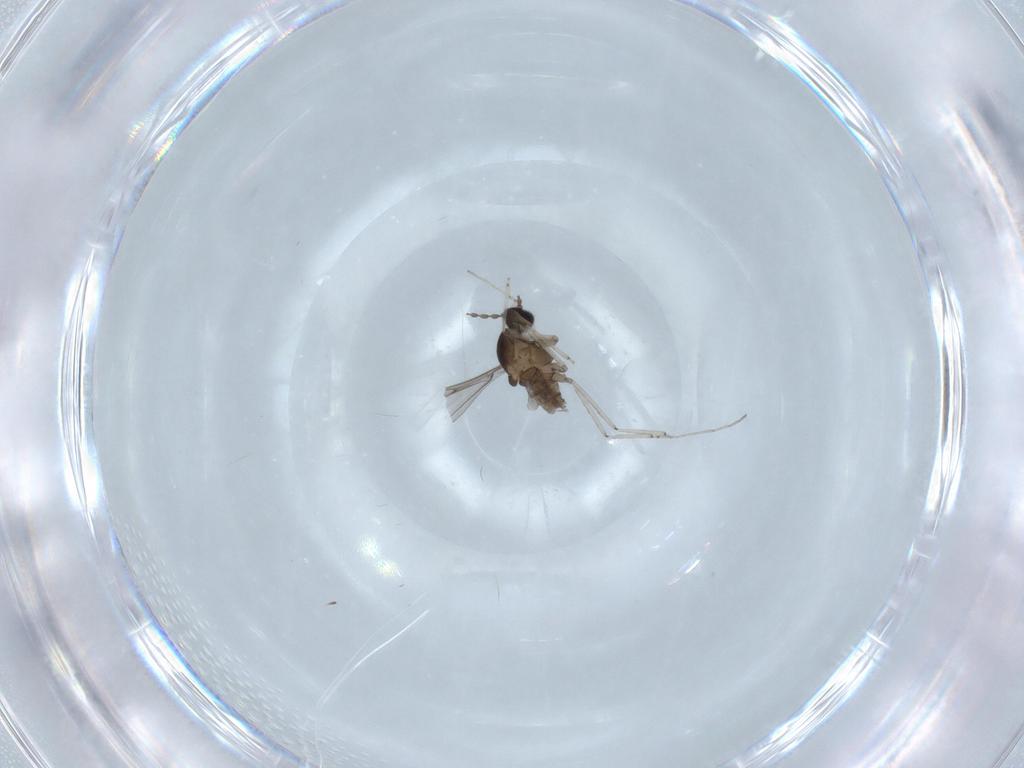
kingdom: Animalia
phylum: Arthropoda
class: Insecta
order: Diptera
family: Cecidomyiidae
